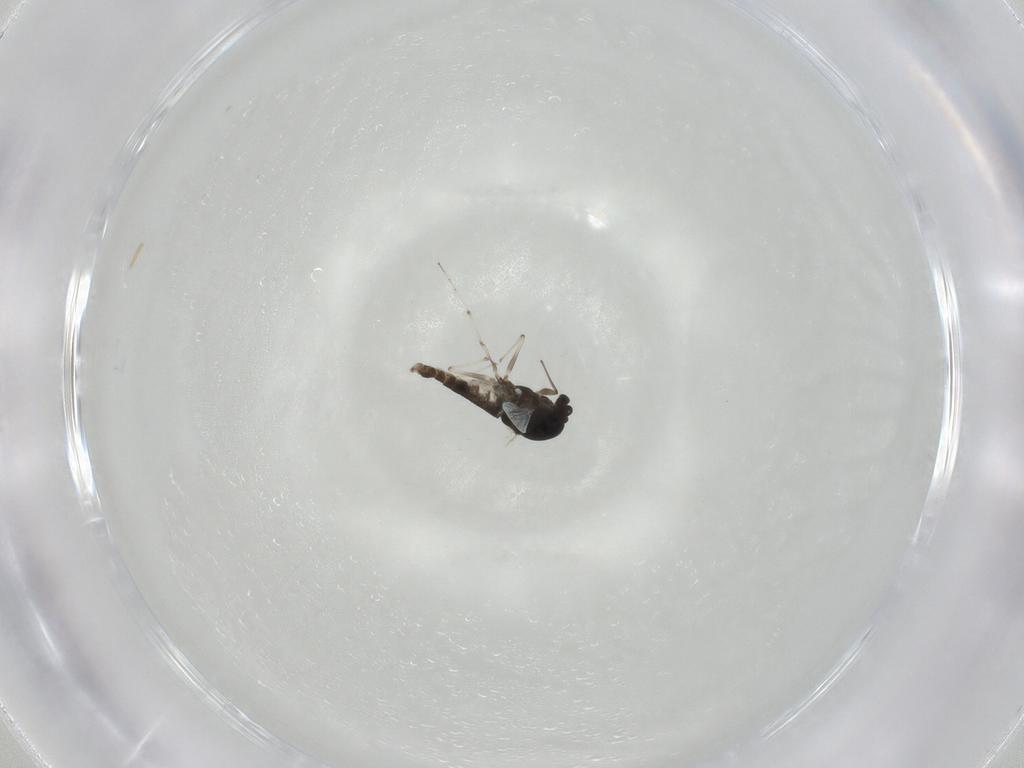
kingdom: Animalia
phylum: Arthropoda
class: Insecta
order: Diptera
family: Chironomidae
